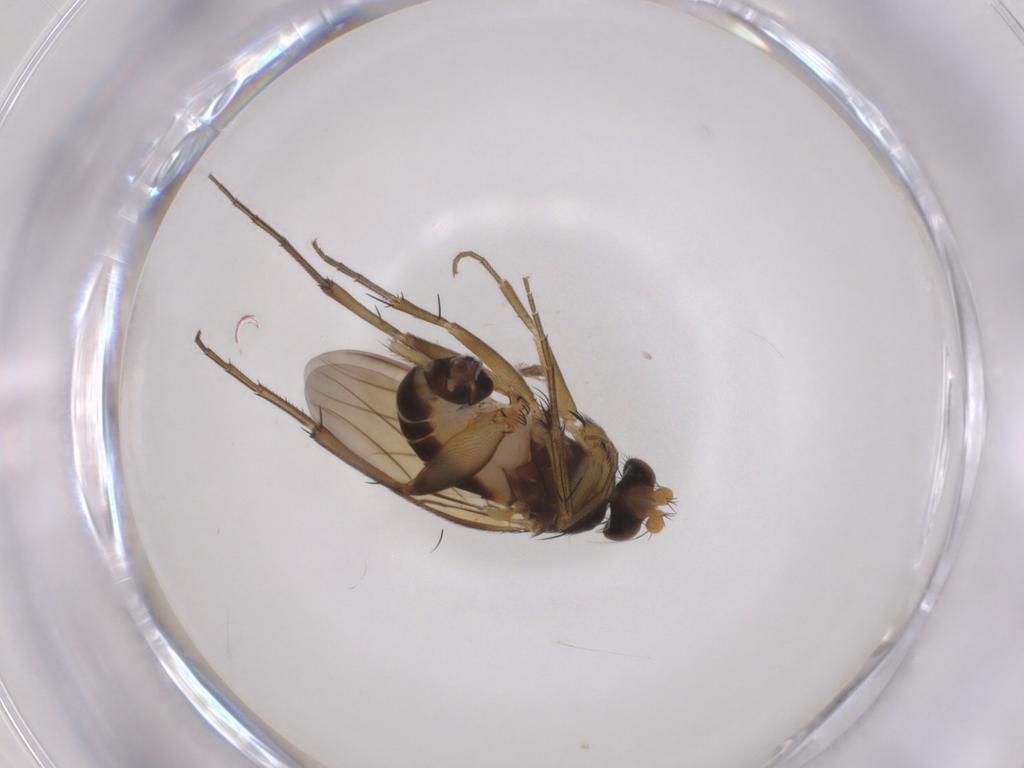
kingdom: Animalia
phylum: Arthropoda
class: Insecta
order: Diptera
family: Phoridae
